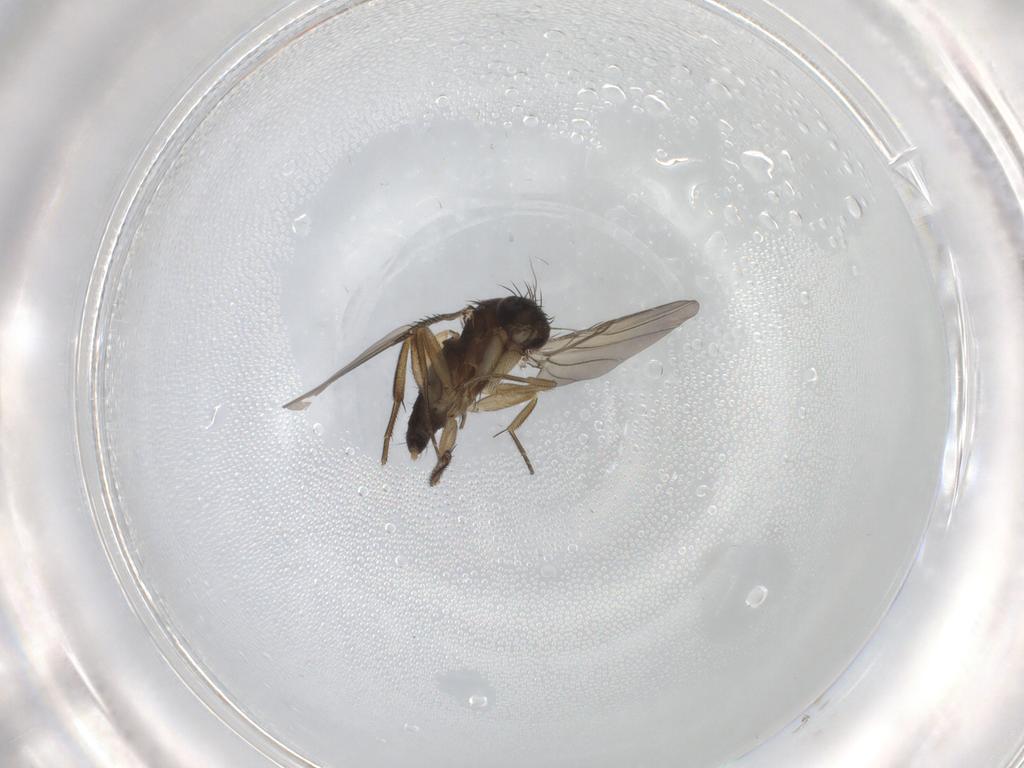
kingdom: Animalia
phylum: Arthropoda
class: Insecta
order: Diptera
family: Phoridae
